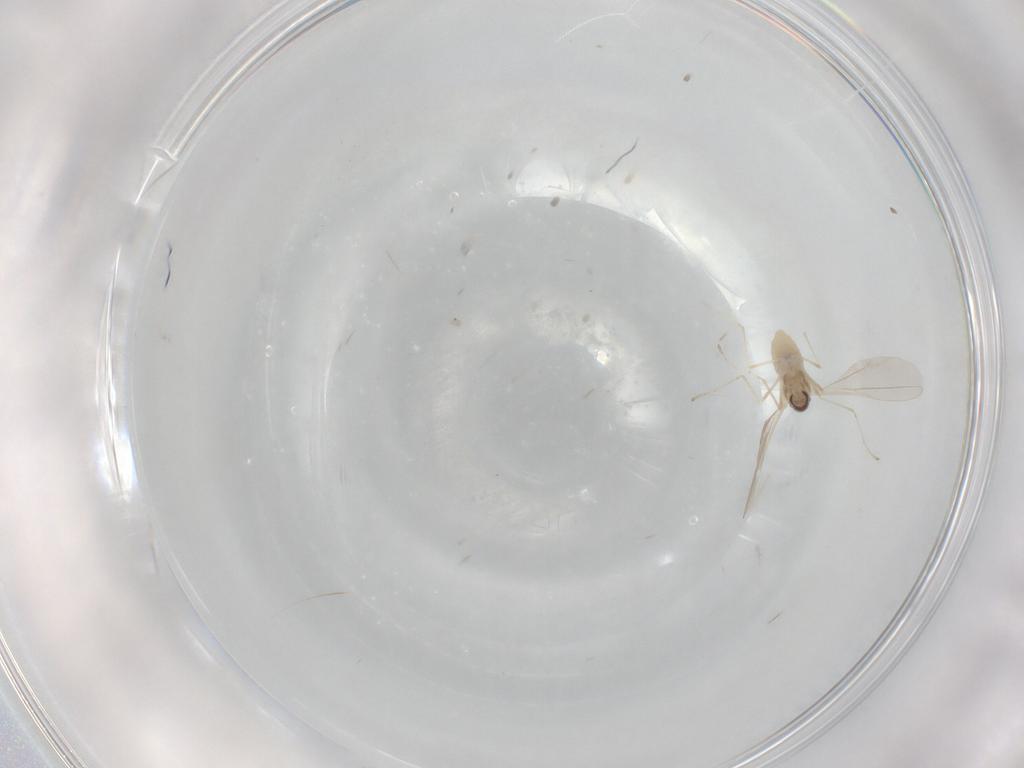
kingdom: Animalia
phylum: Arthropoda
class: Insecta
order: Diptera
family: Cecidomyiidae
